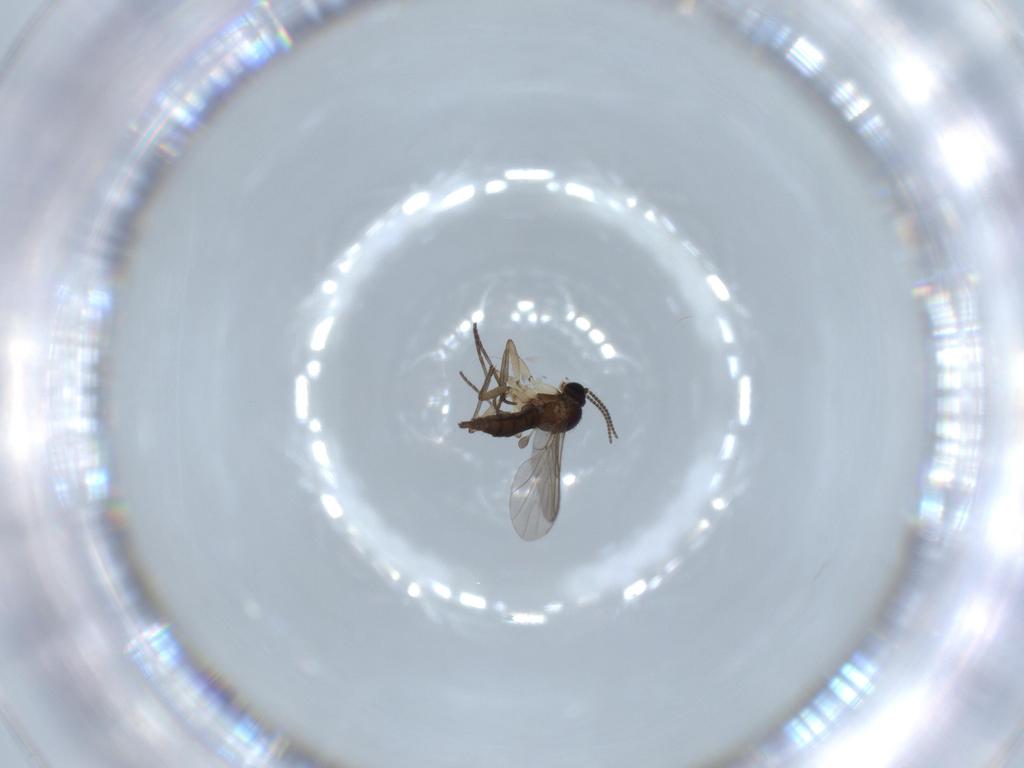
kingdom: Animalia
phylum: Arthropoda
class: Insecta
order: Diptera
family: Sciaridae
